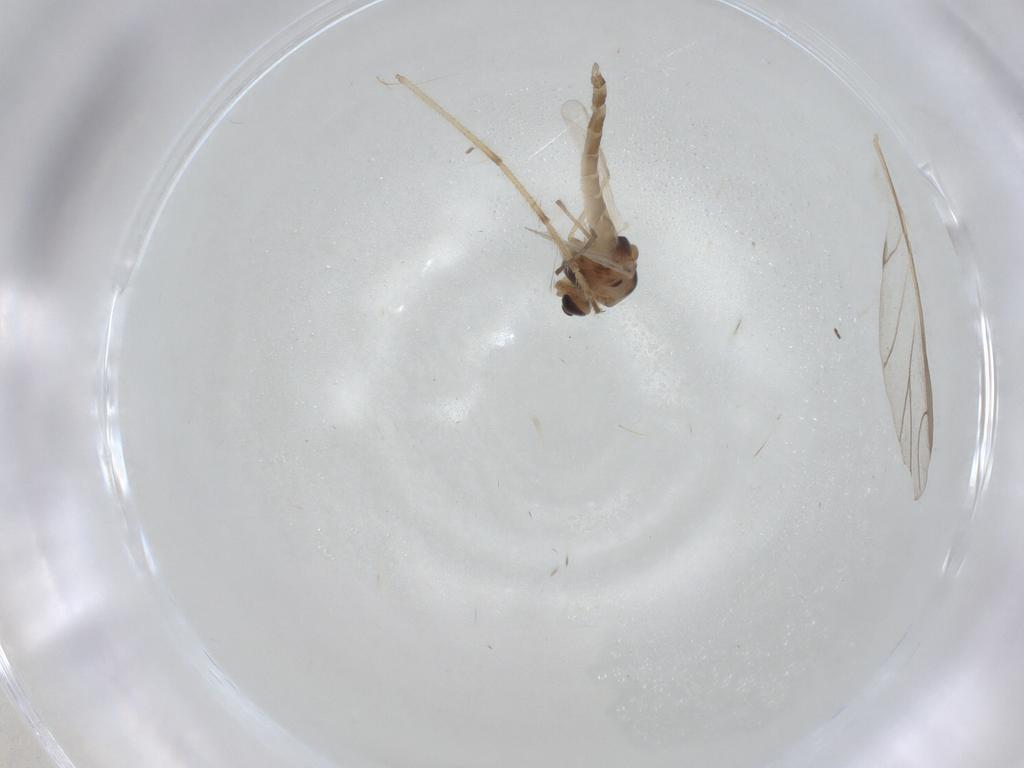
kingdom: Animalia
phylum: Arthropoda
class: Insecta
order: Diptera
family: Chironomidae
